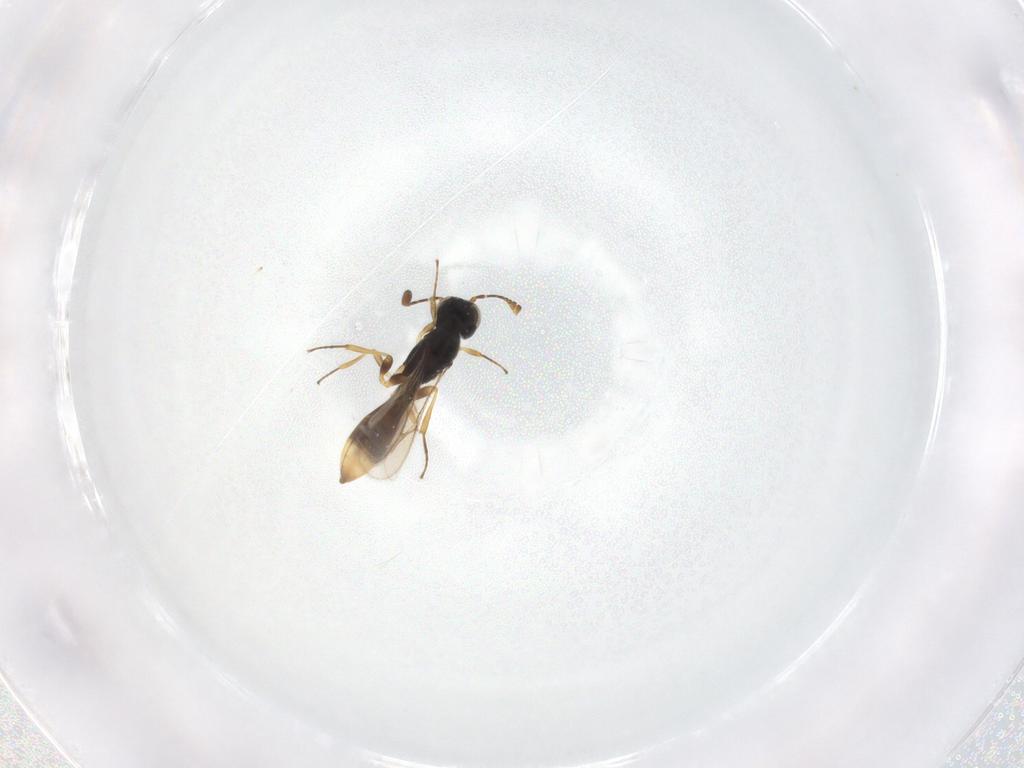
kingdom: Animalia
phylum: Arthropoda
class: Insecta
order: Hymenoptera
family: Scelionidae
